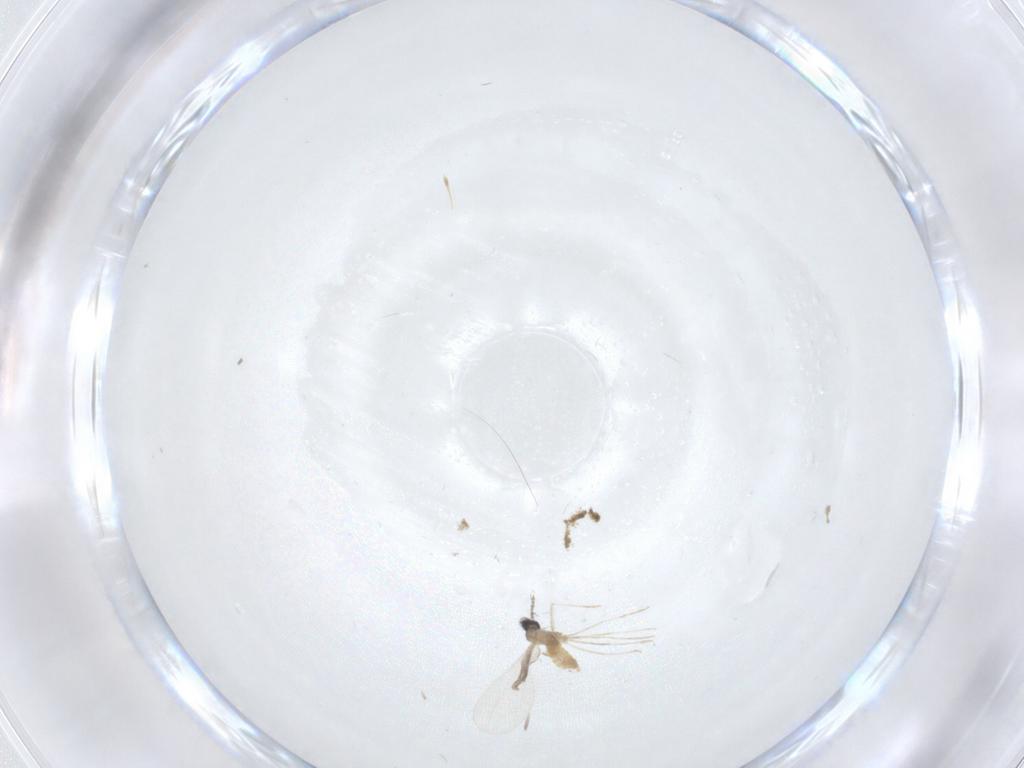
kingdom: Animalia
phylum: Arthropoda
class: Insecta
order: Diptera
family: Cecidomyiidae
